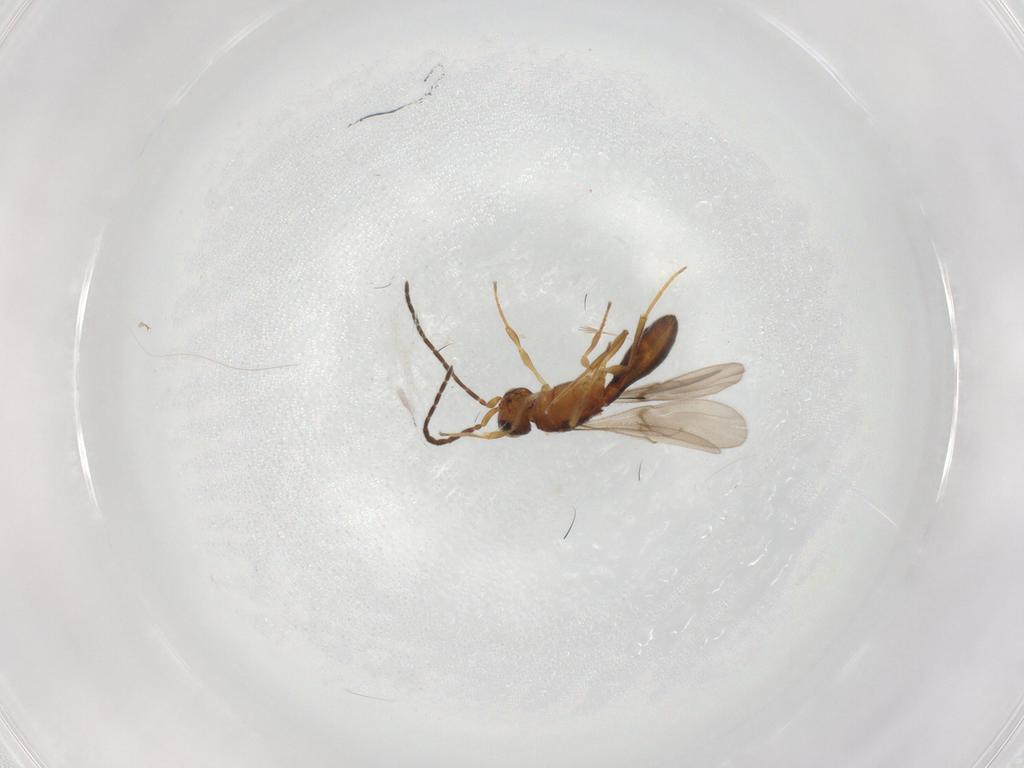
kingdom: Animalia
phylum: Arthropoda
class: Insecta
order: Hymenoptera
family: Scelionidae
